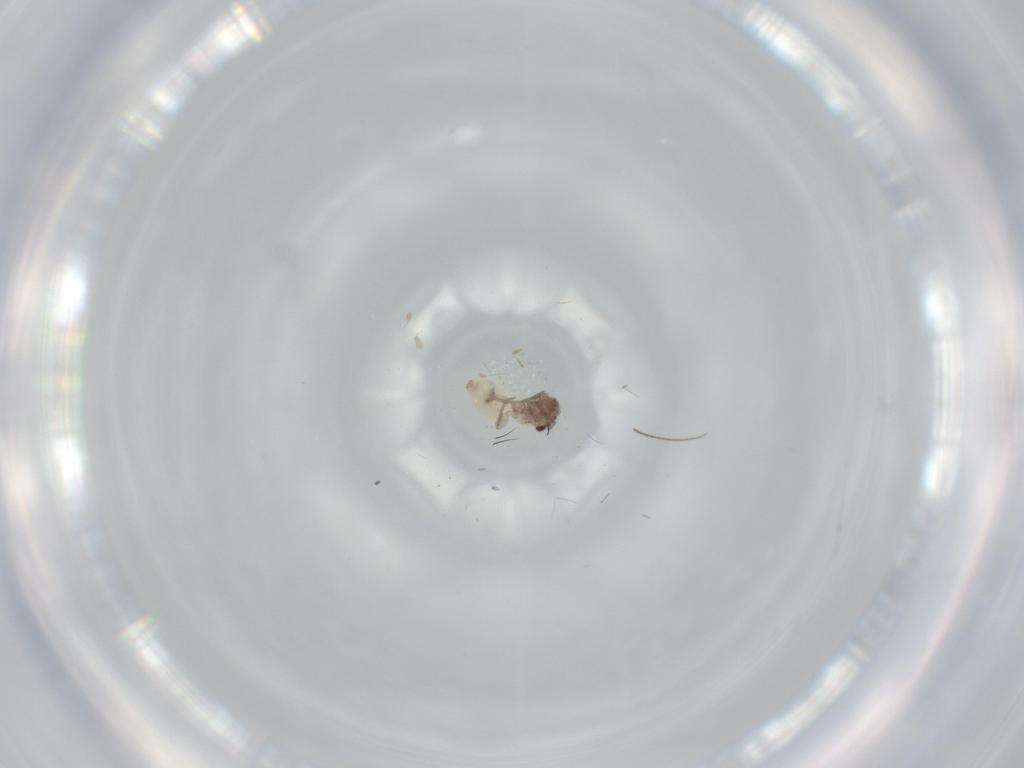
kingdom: Animalia
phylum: Arthropoda
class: Insecta
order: Psocodea
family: Lepidopsocidae
